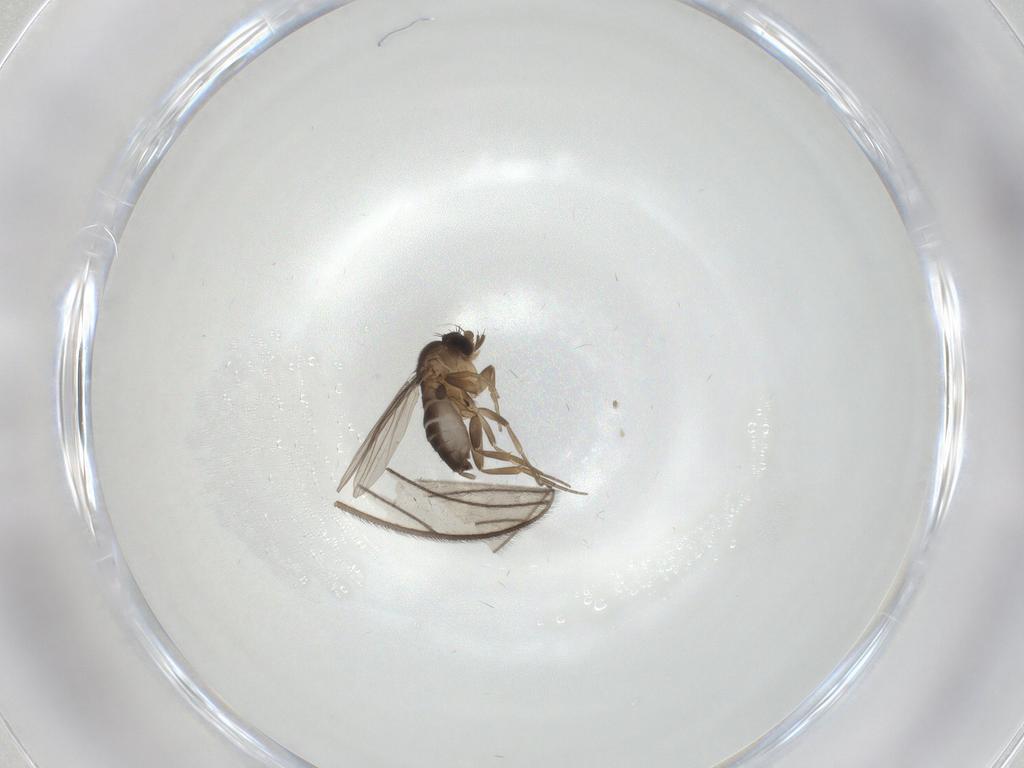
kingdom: Animalia
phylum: Arthropoda
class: Insecta
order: Diptera
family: Phoridae
